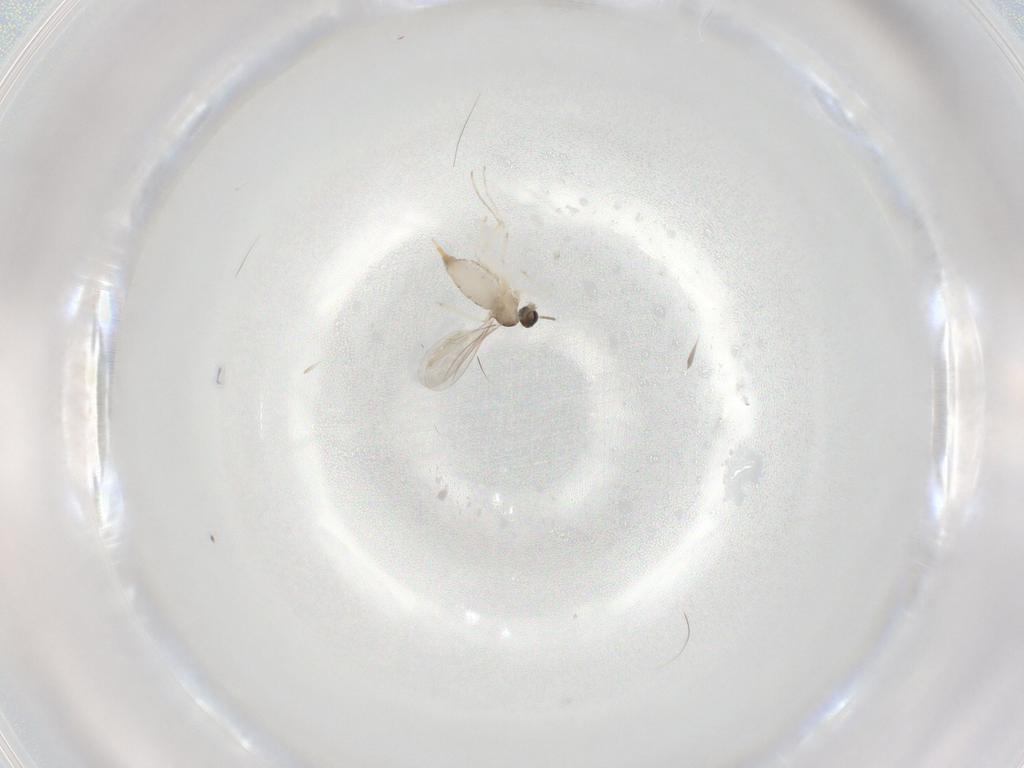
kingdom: Animalia
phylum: Arthropoda
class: Insecta
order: Diptera
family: Cecidomyiidae
